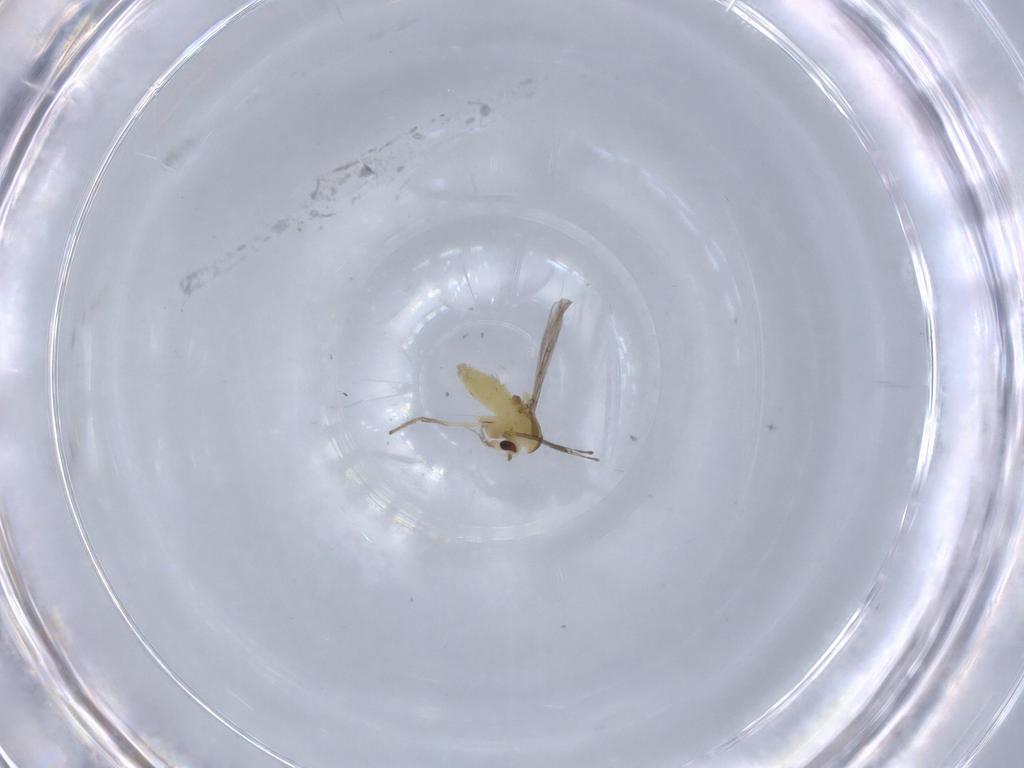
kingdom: Animalia
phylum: Arthropoda
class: Insecta
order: Diptera
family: Chironomidae
